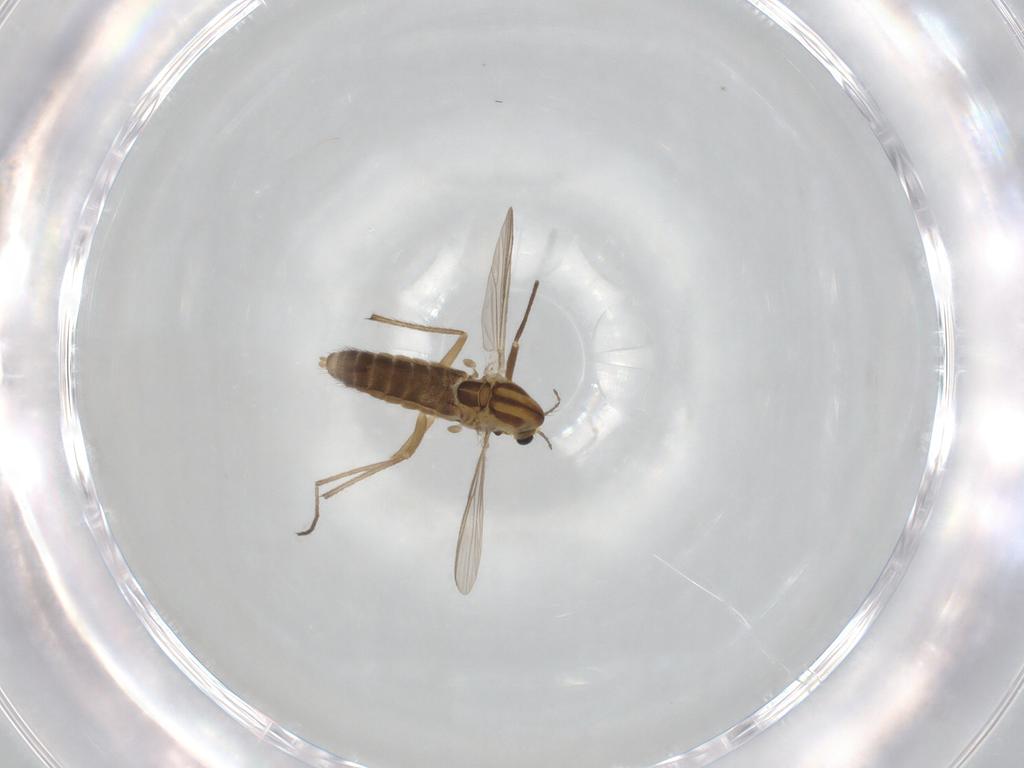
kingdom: Animalia
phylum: Arthropoda
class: Insecta
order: Diptera
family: Chironomidae
